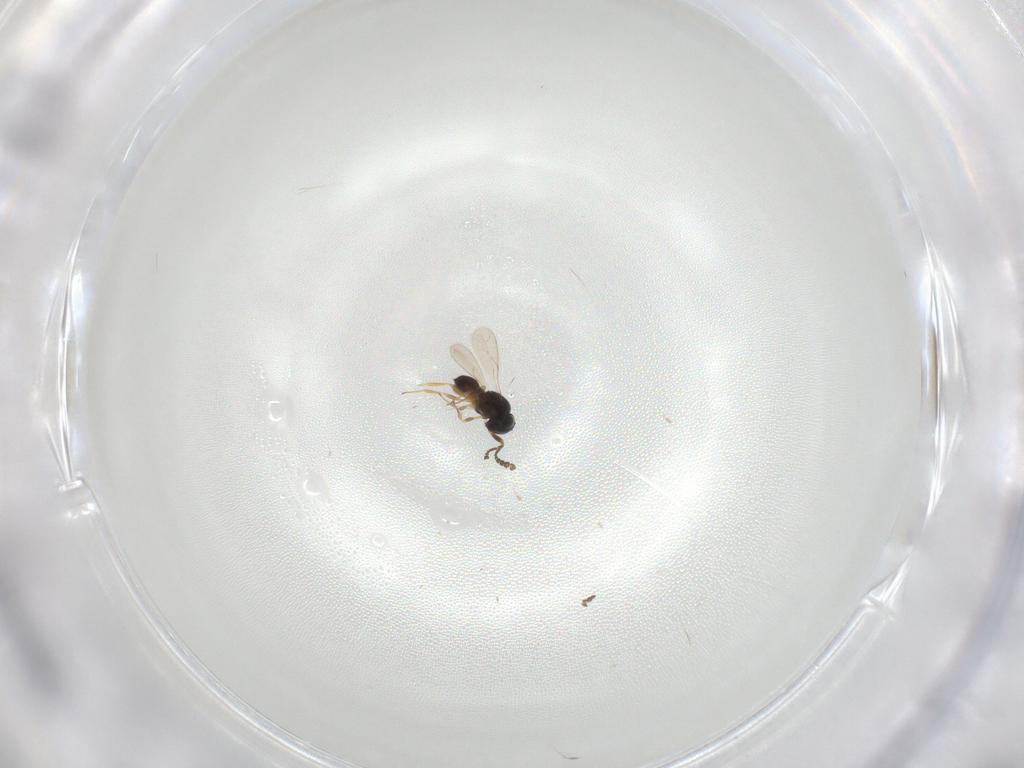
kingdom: Animalia
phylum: Arthropoda
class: Insecta
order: Hymenoptera
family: Scelionidae
